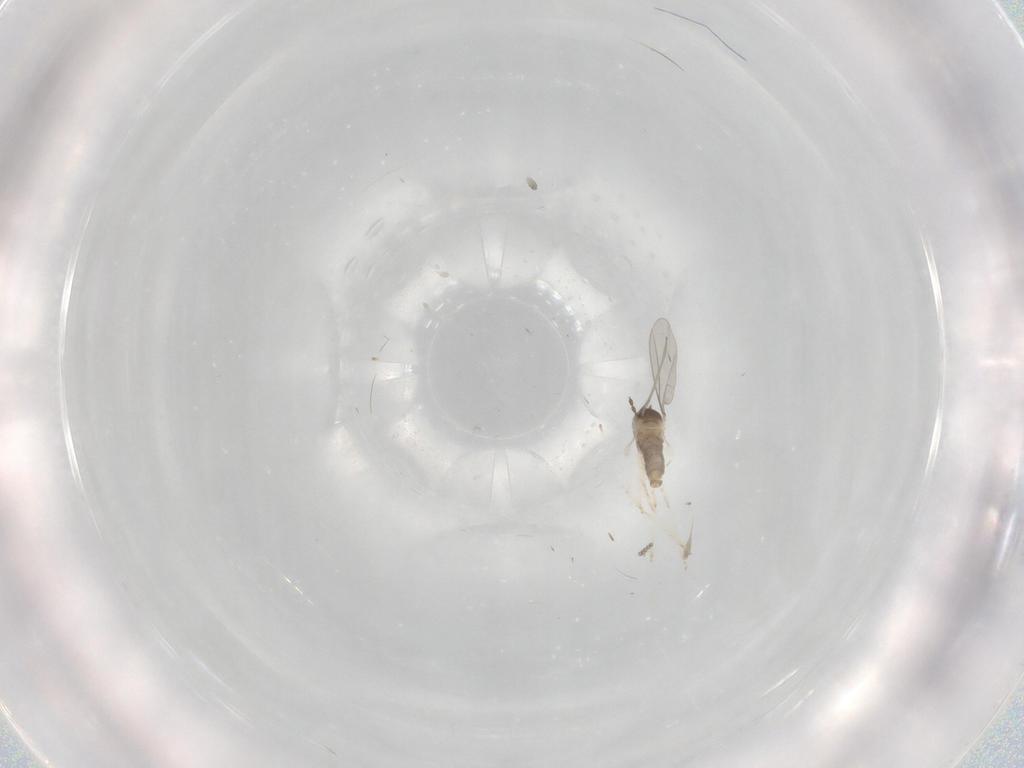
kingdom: Animalia
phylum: Arthropoda
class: Insecta
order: Diptera
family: Cecidomyiidae
